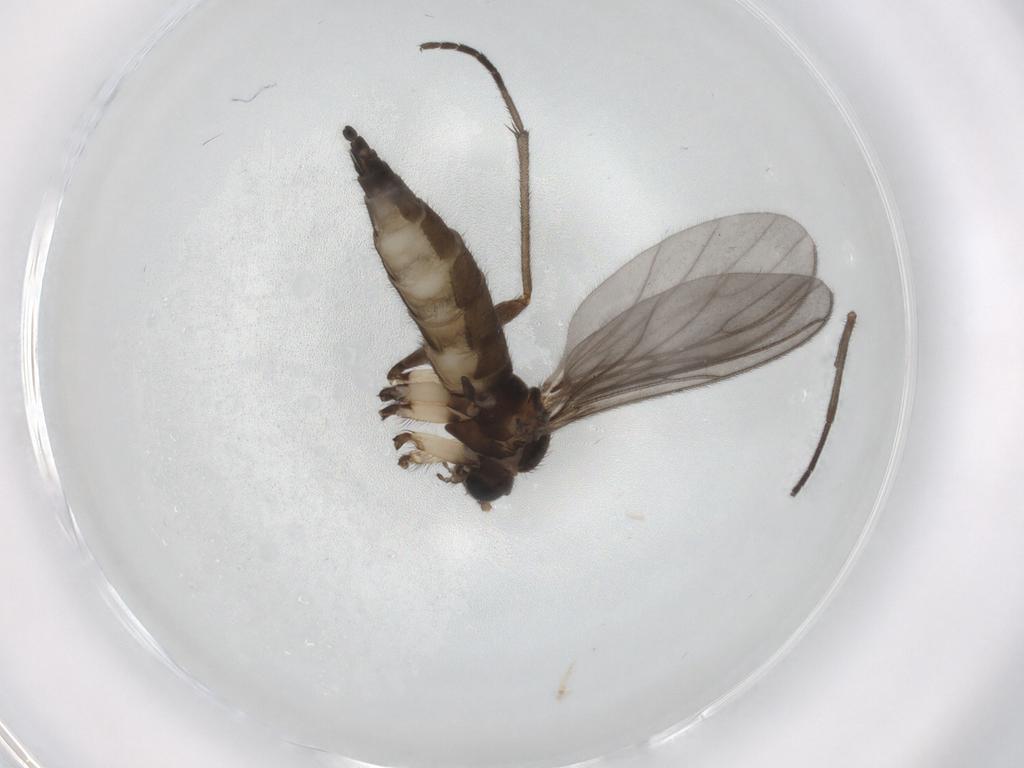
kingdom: Animalia
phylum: Arthropoda
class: Insecta
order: Diptera
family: Sciaridae
